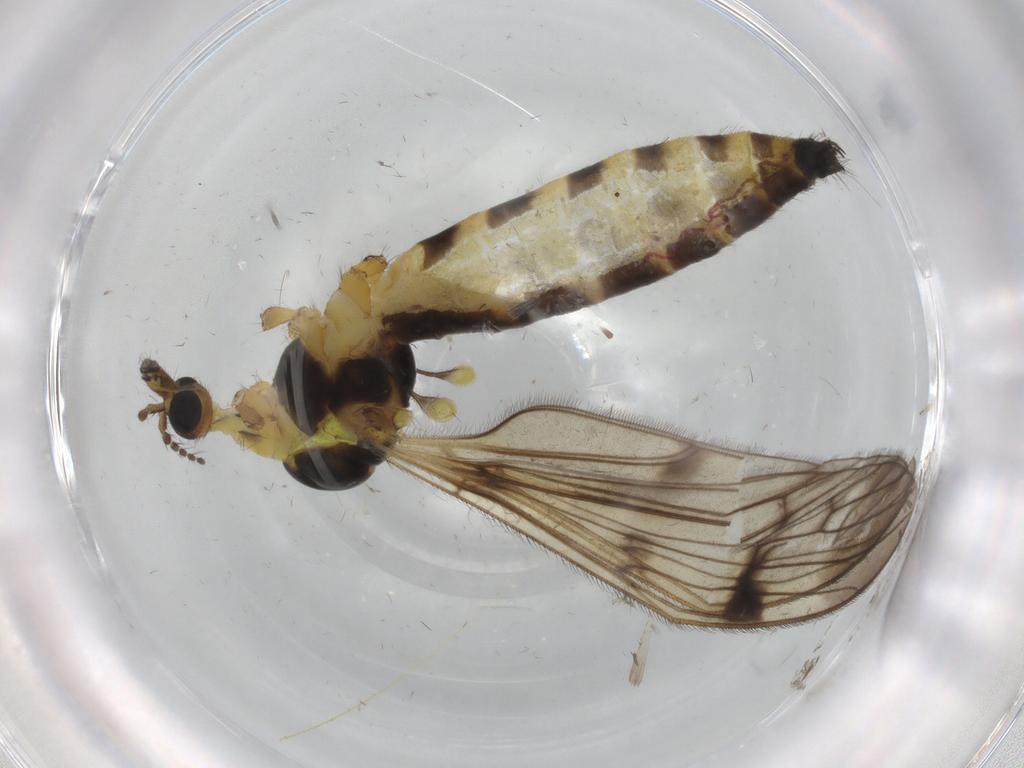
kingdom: Animalia
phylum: Arthropoda
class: Insecta
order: Diptera
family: Limoniidae
